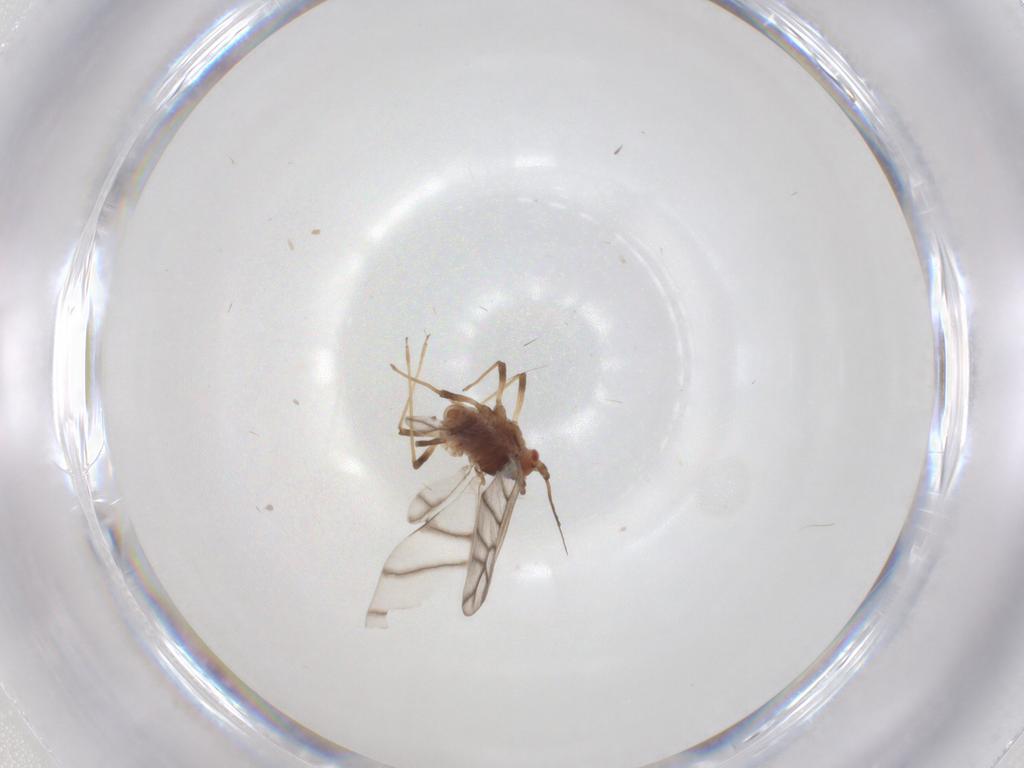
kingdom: Animalia
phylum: Arthropoda
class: Insecta
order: Hemiptera
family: Aphididae
